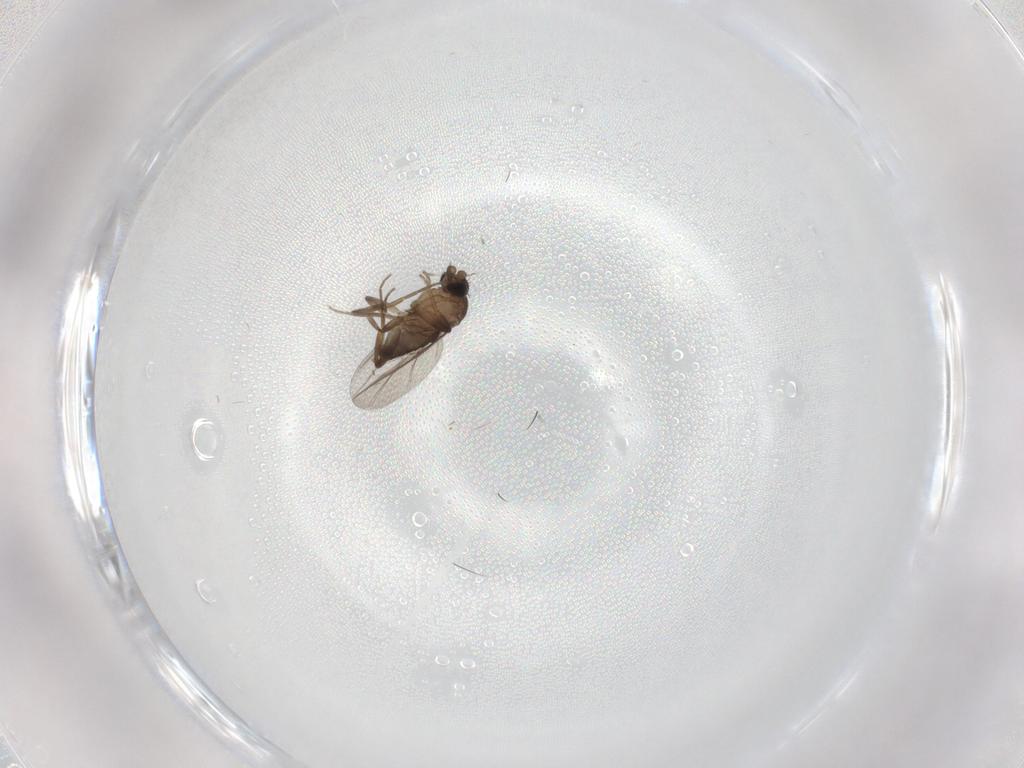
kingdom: Animalia
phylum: Arthropoda
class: Insecta
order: Diptera
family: Phoridae
